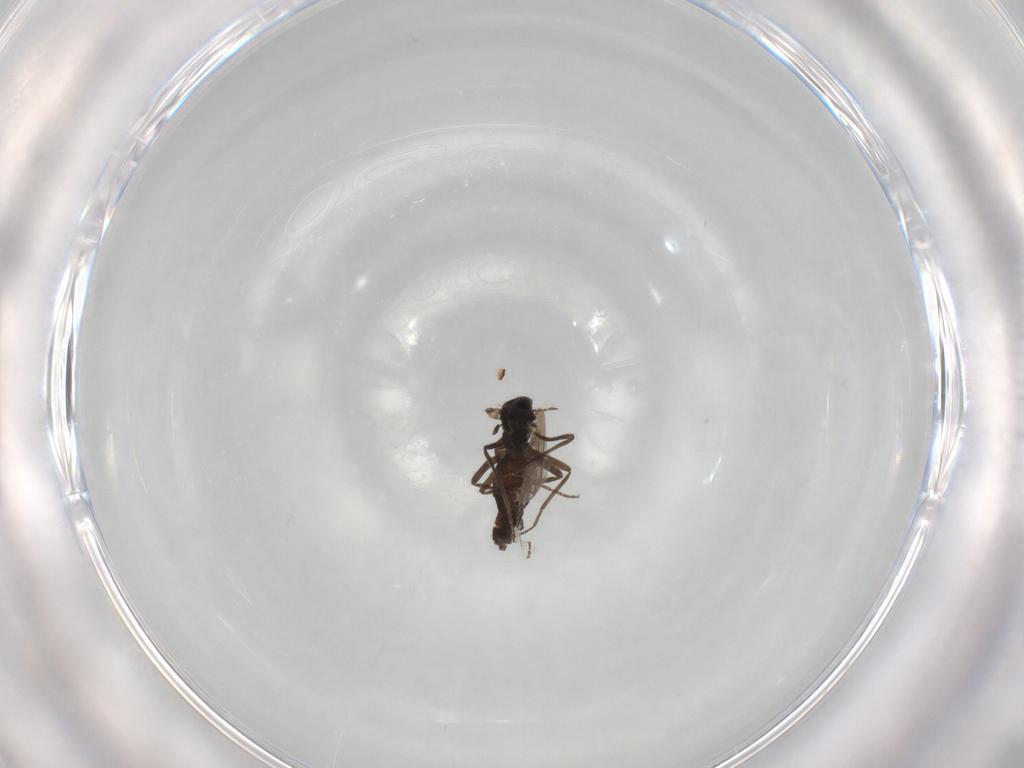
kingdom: Animalia
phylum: Arthropoda
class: Insecta
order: Diptera
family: Chironomidae
